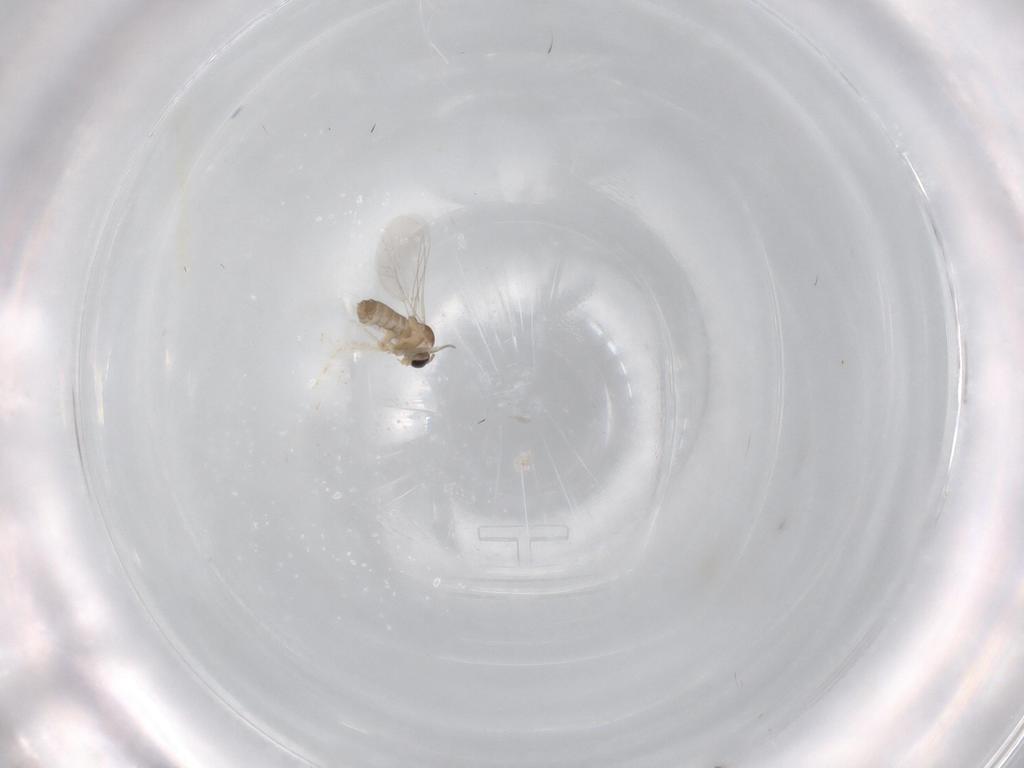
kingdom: Animalia
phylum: Arthropoda
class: Insecta
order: Diptera
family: Cecidomyiidae
